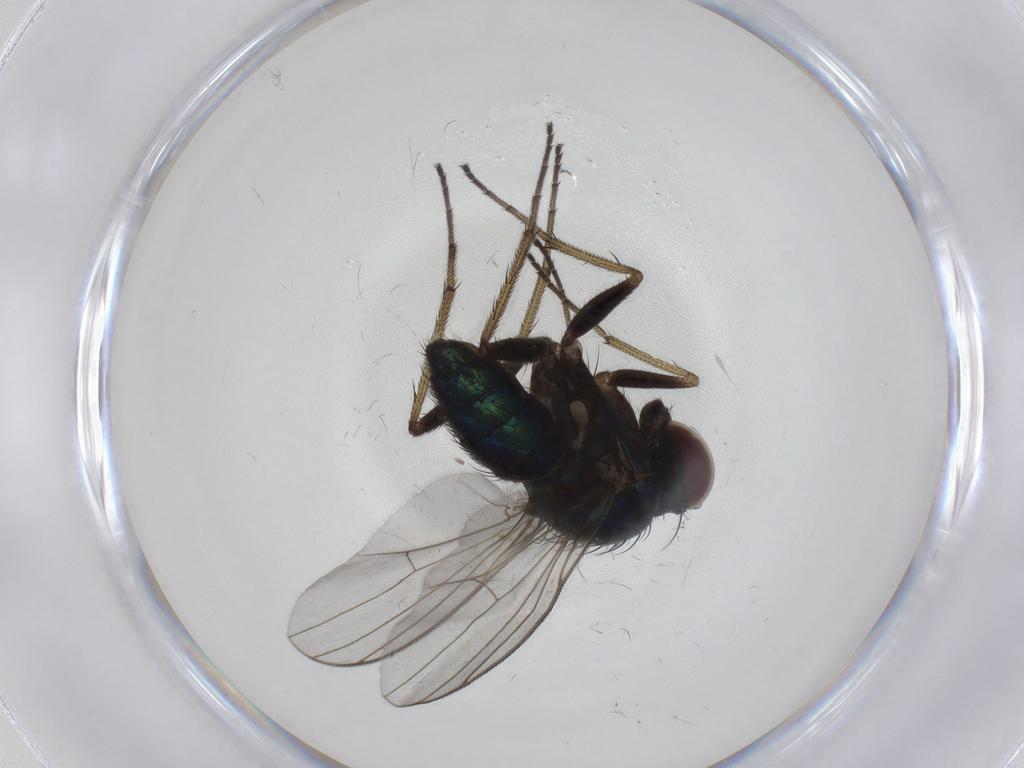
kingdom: Animalia
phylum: Arthropoda
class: Insecta
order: Diptera
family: Dolichopodidae
